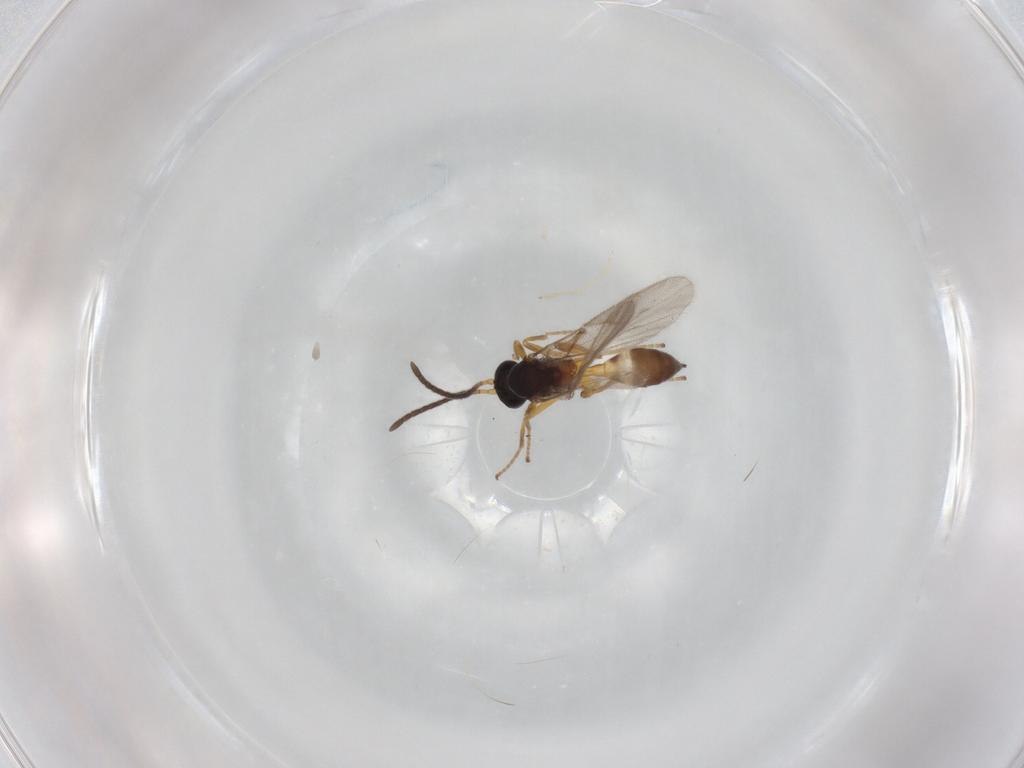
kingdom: Animalia
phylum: Arthropoda
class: Insecta
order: Hymenoptera
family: Braconidae
